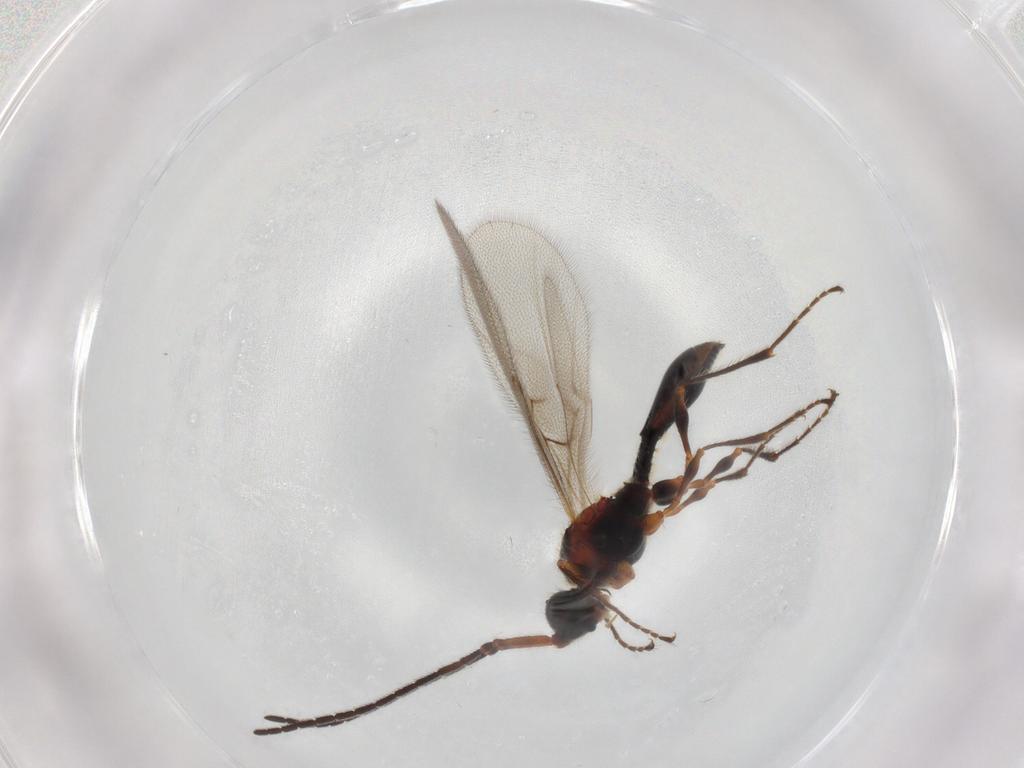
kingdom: Animalia
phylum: Arthropoda
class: Insecta
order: Hymenoptera
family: Diapriidae
